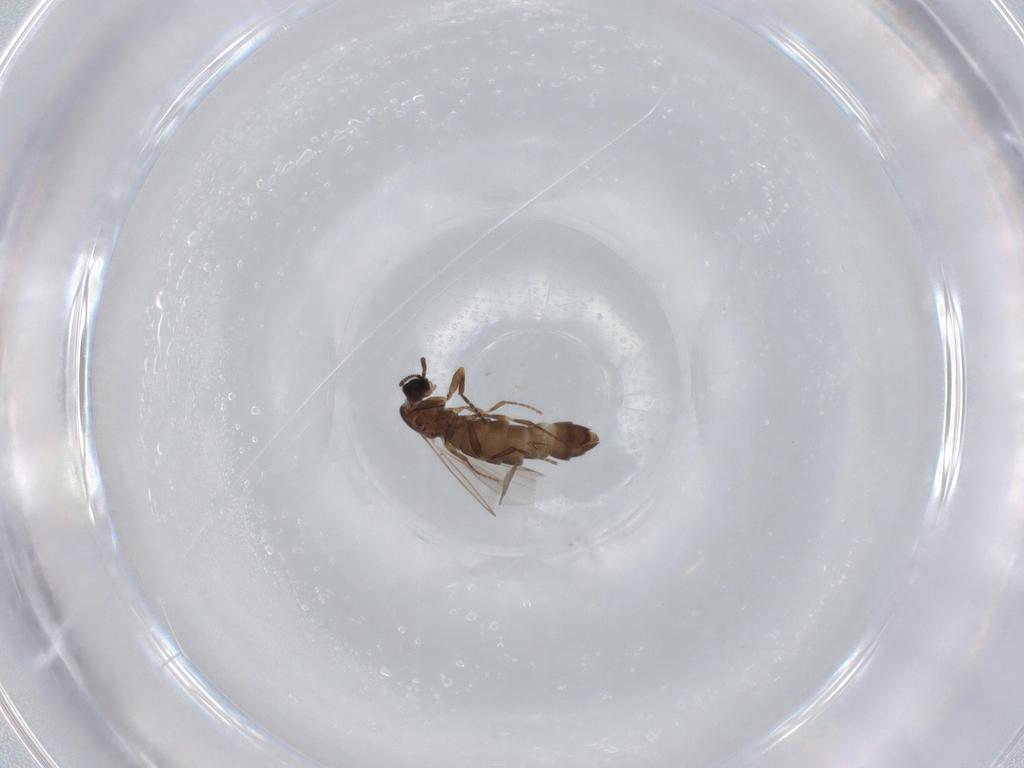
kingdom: Animalia
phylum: Arthropoda
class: Insecta
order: Diptera
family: Scatopsidae
